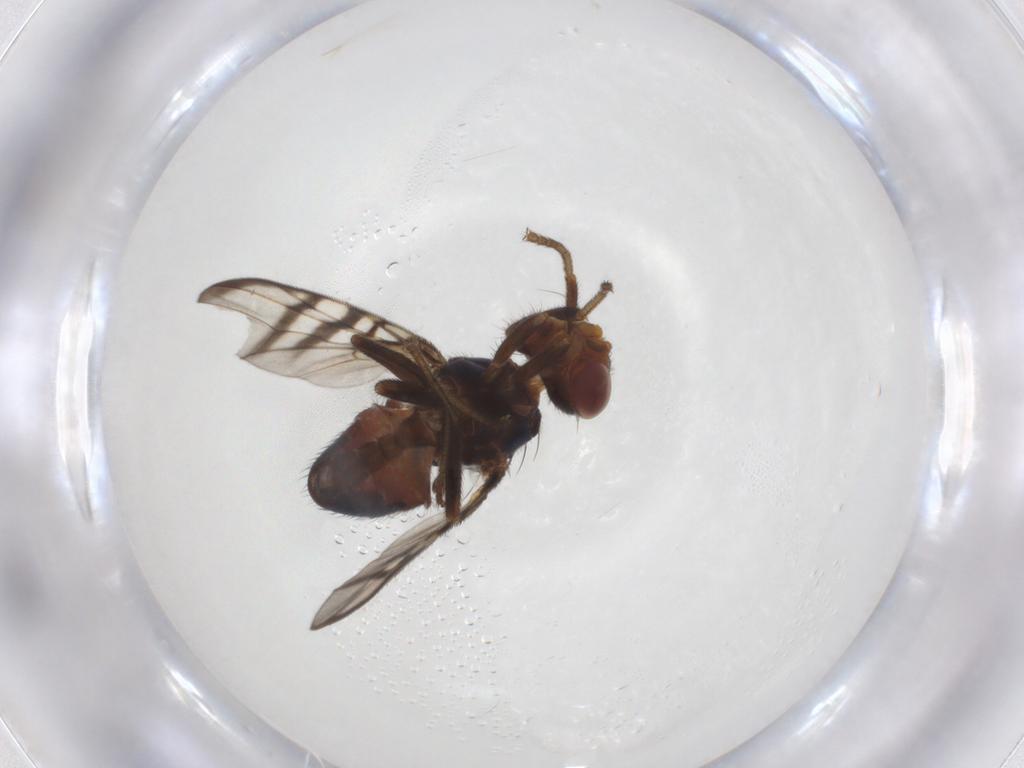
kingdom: Animalia
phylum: Arthropoda
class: Insecta
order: Diptera
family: Platystomatidae
